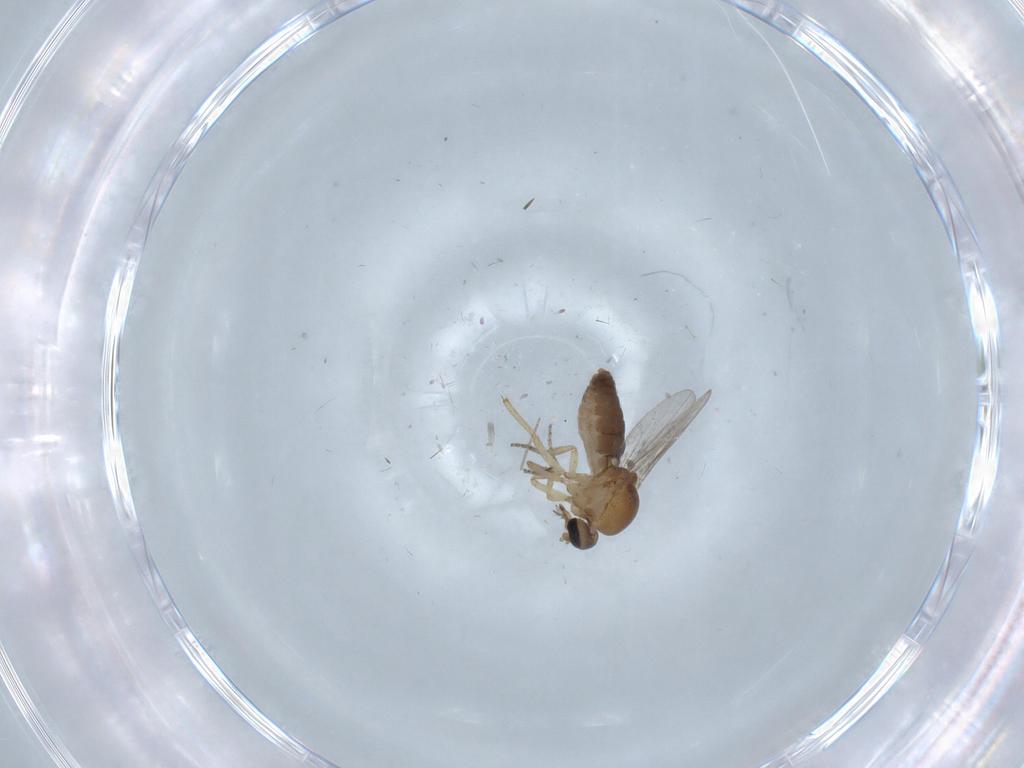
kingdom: Animalia
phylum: Arthropoda
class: Insecta
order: Diptera
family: Ceratopogonidae
